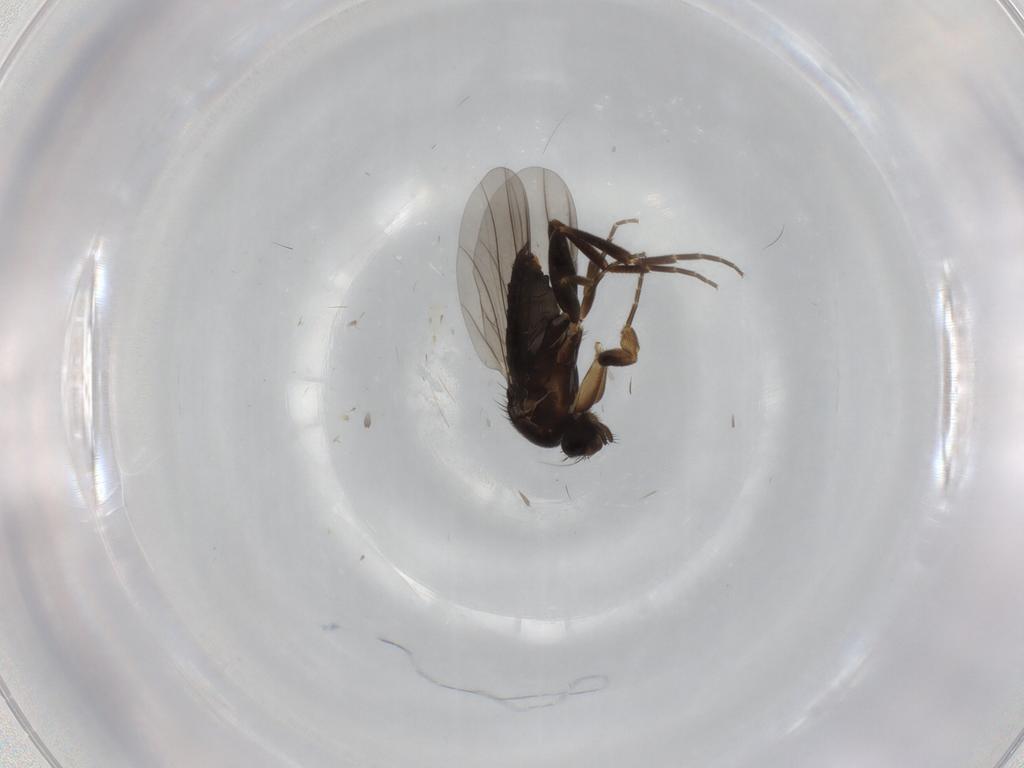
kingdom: Animalia
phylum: Arthropoda
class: Insecta
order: Diptera
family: Phoridae
